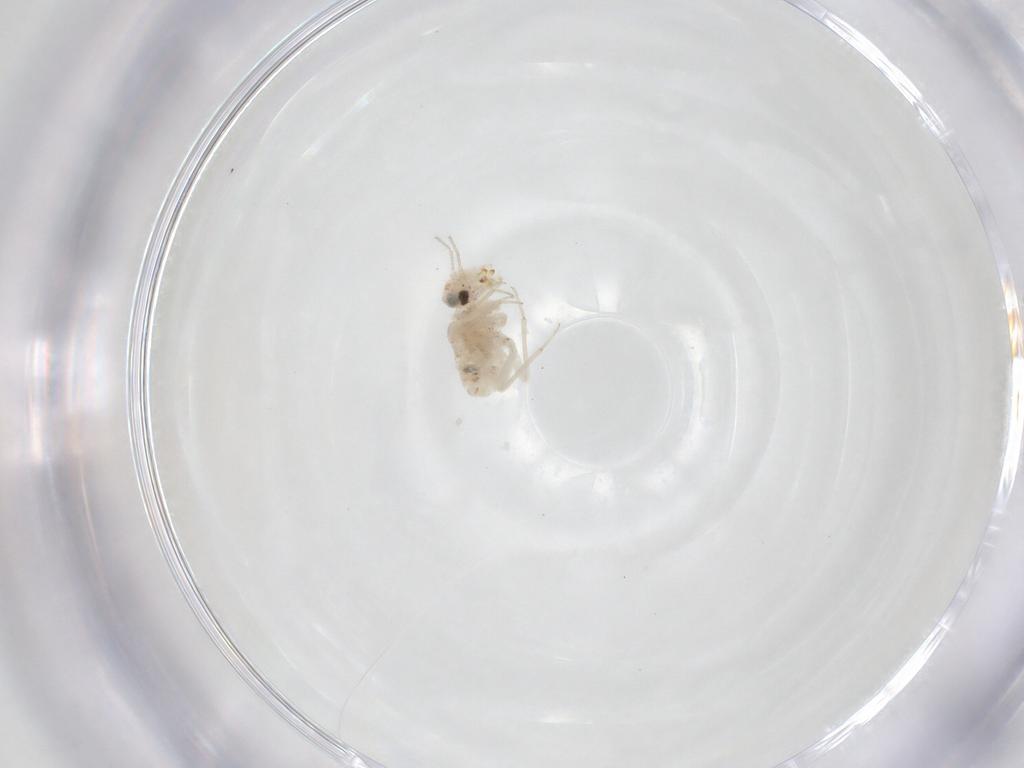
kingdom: Animalia
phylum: Arthropoda
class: Insecta
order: Psocodea
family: Lachesillidae
